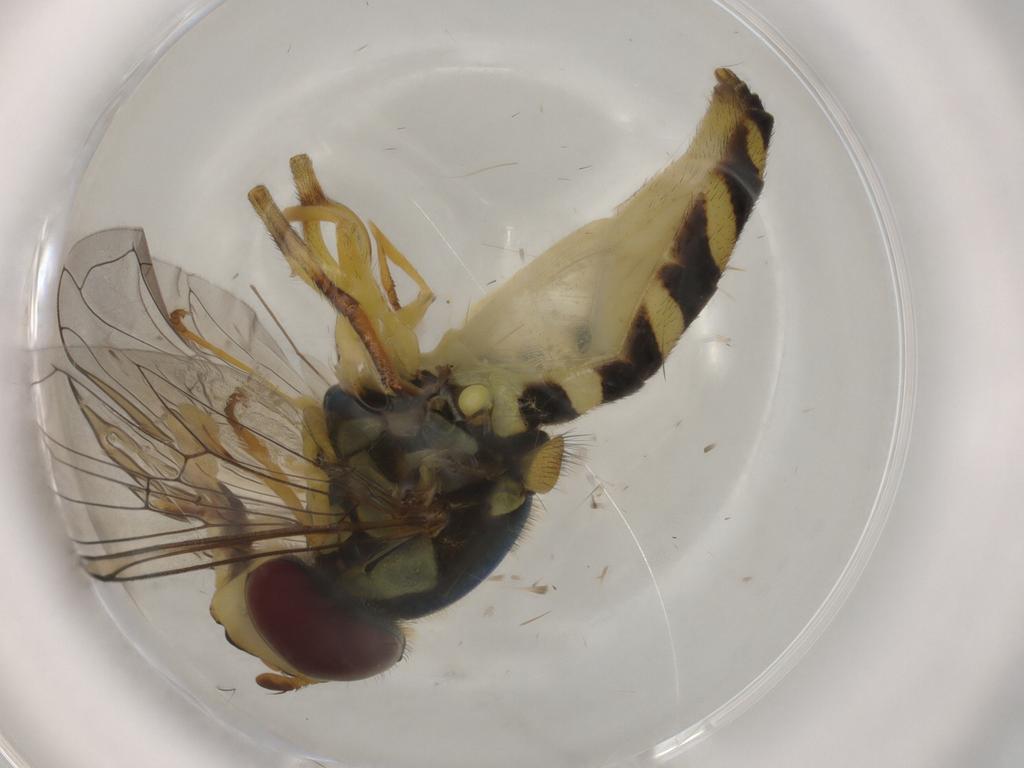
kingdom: Animalia
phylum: Arthropoda
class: Insecta
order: Diptera
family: Syrphidae
